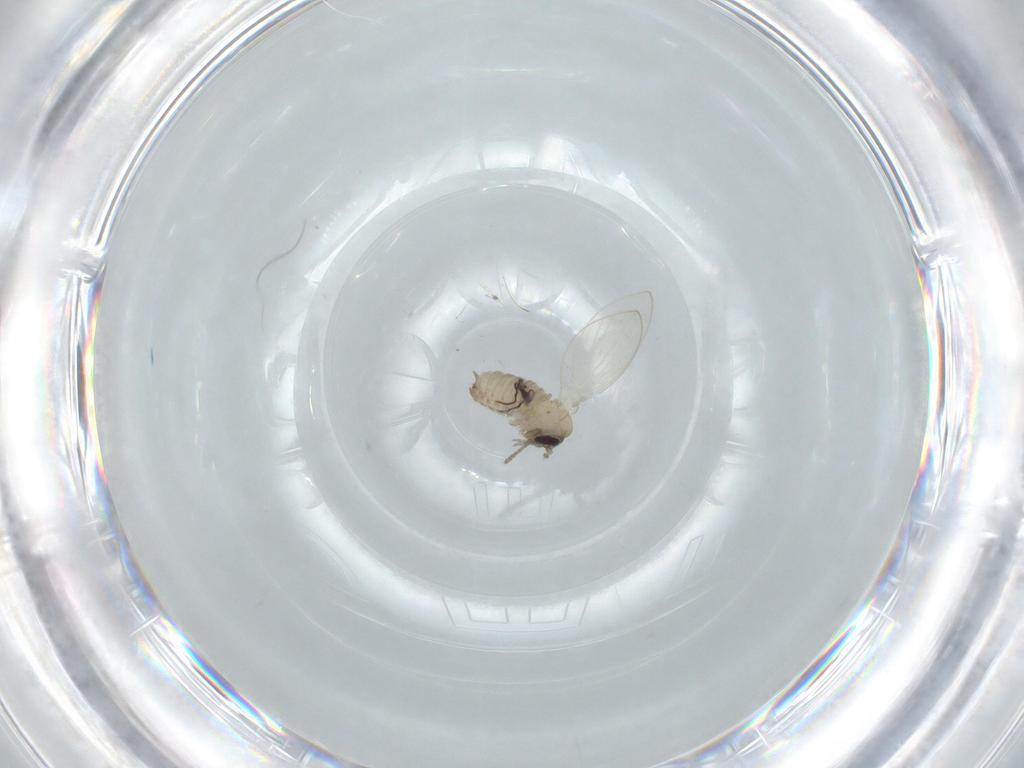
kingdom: Animalia
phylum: Arthropoda
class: Insecta
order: Diptera
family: Psychodidae
